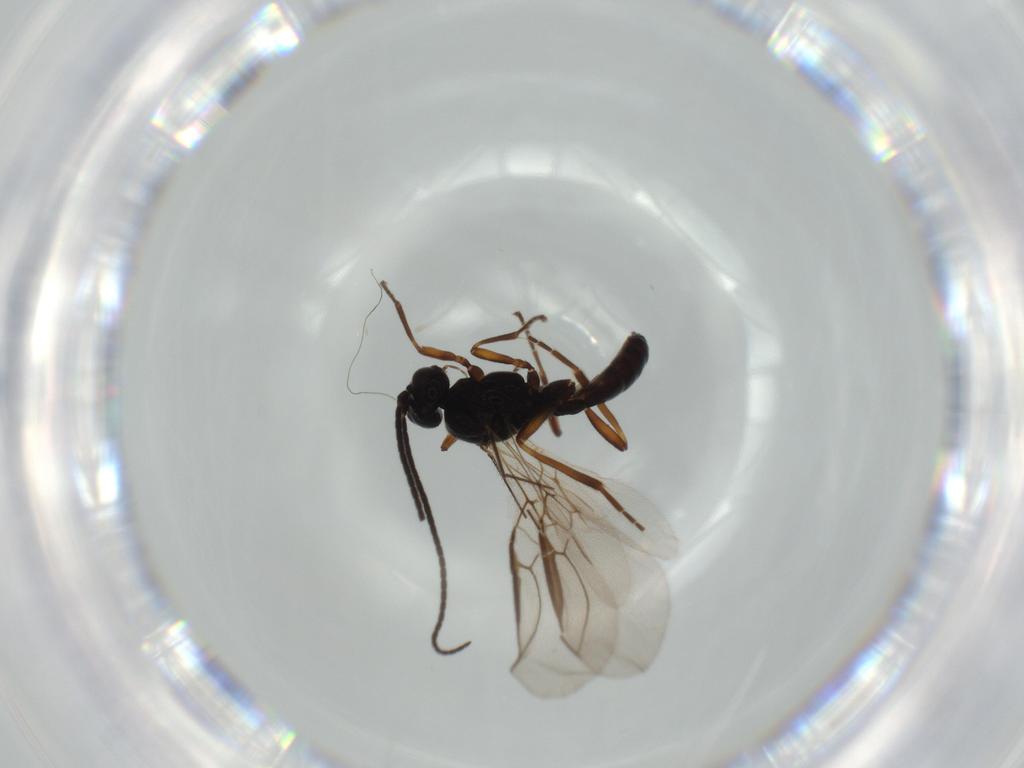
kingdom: Animalia
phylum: Arthropoda
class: Insecta
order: Hymenoptera
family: Braconidae
